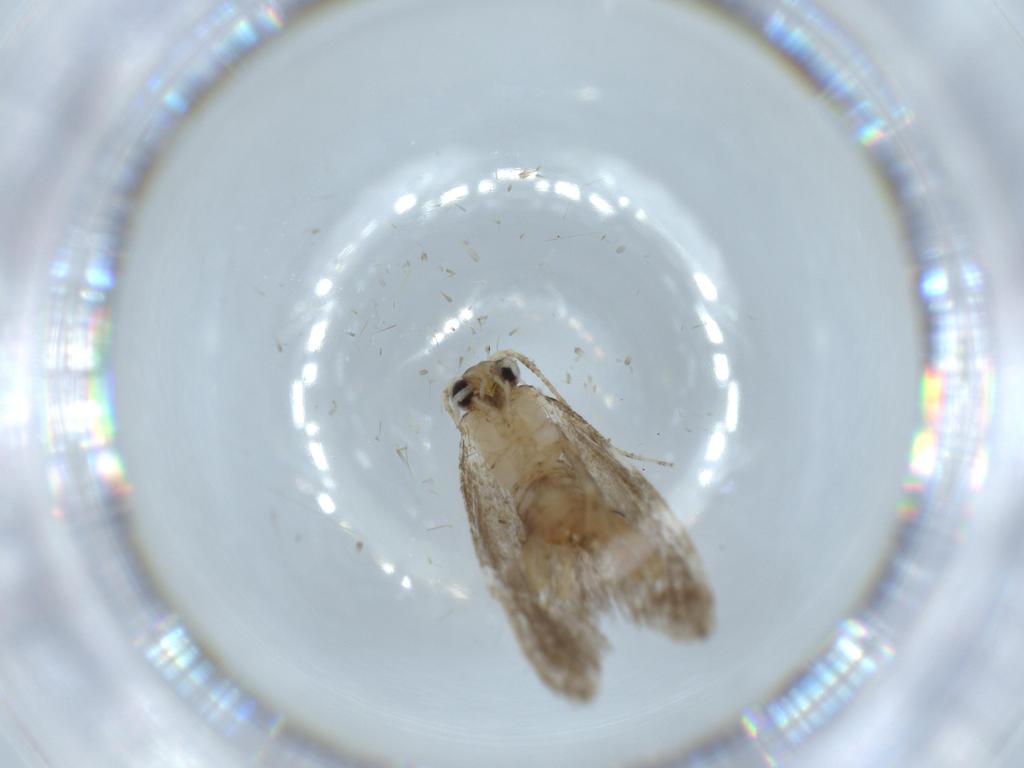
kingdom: Animalia
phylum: Arthropoda
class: Insecta
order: Lepidoptera
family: Tineidae
